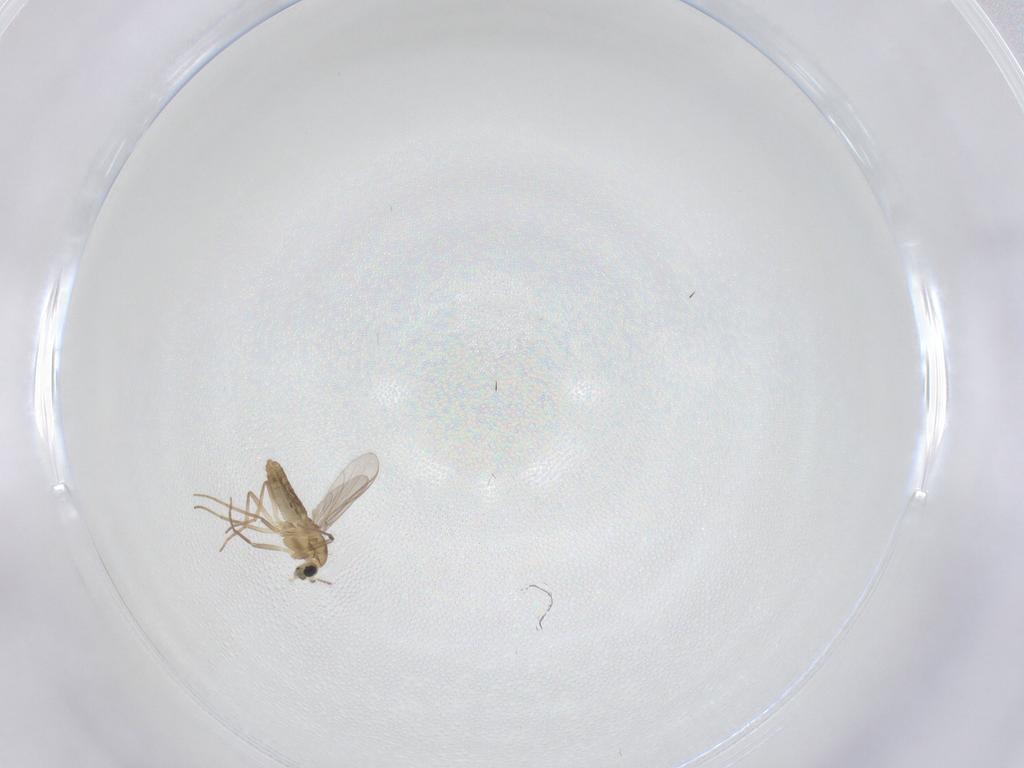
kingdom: Animalia
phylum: Arthropoda
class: Insecta
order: Diptera
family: Chironomidae
